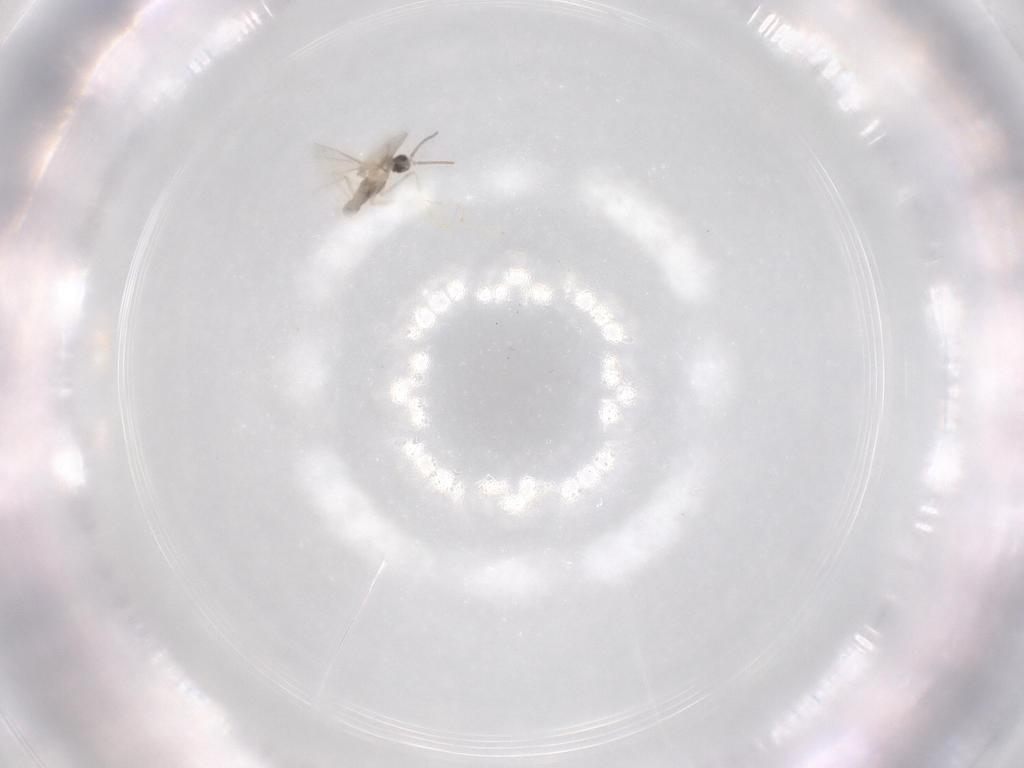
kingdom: Animalia
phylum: Arthropoda
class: Insecta
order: Diptera
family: Dolichopodidae
